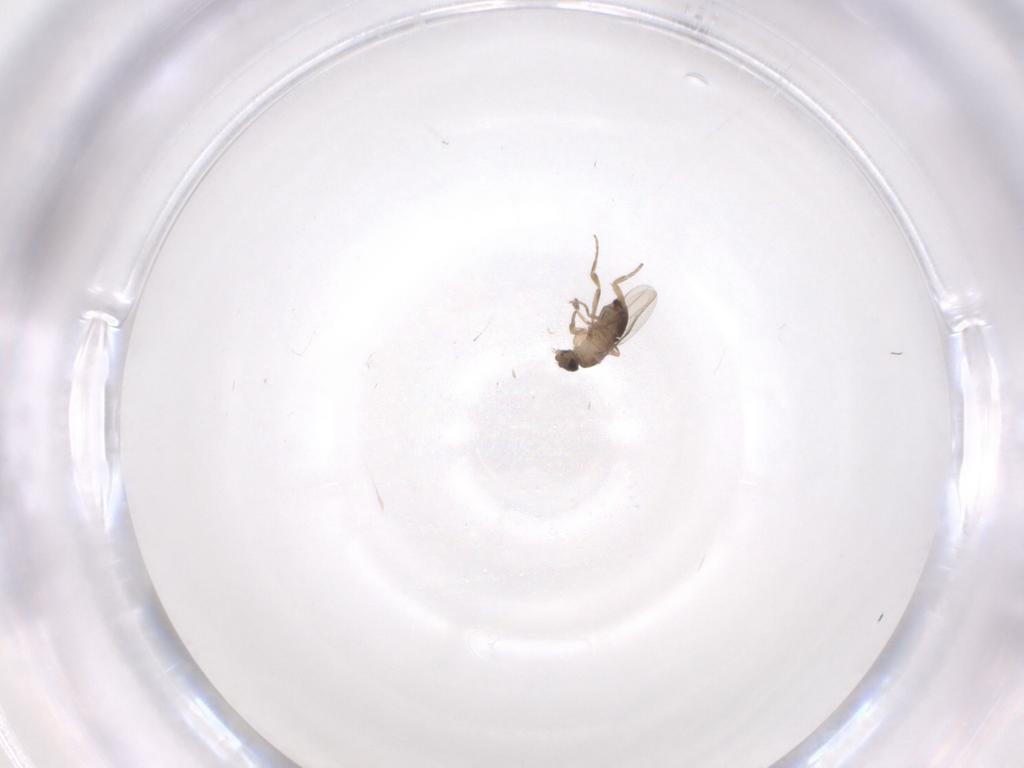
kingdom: Animalia
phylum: Arthropoda
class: Insecta
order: Diptera
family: Phoridae
